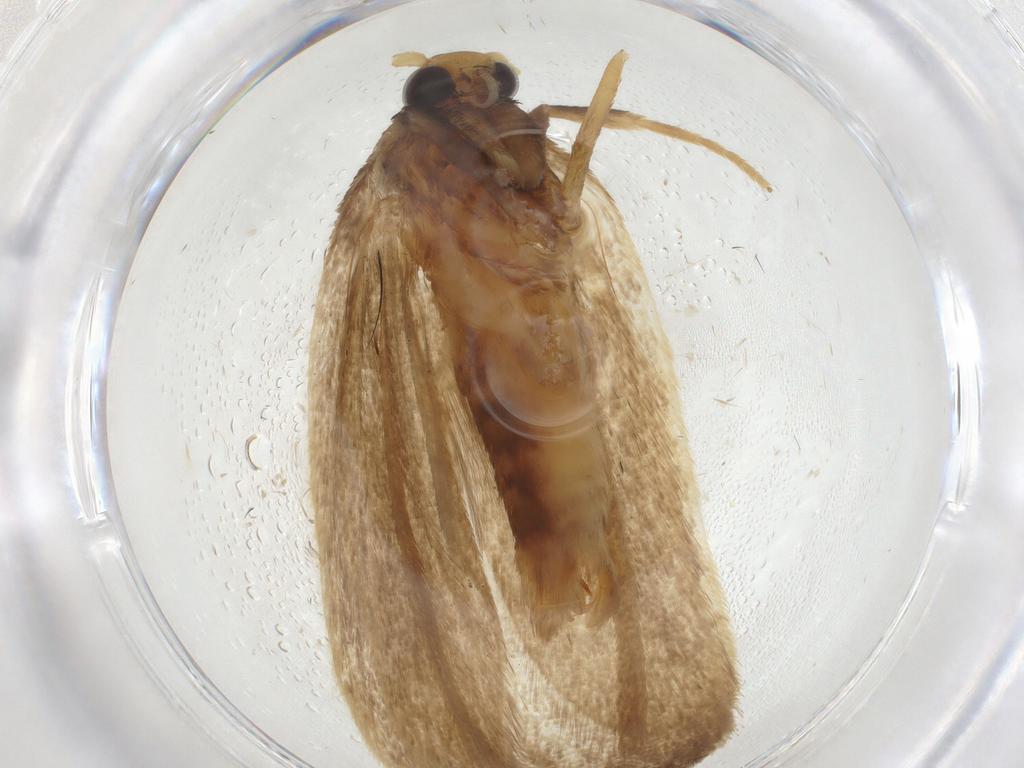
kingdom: Animalia
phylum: Arthropoda
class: Insecta
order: Lepidoptera
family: Lecithoceridae
